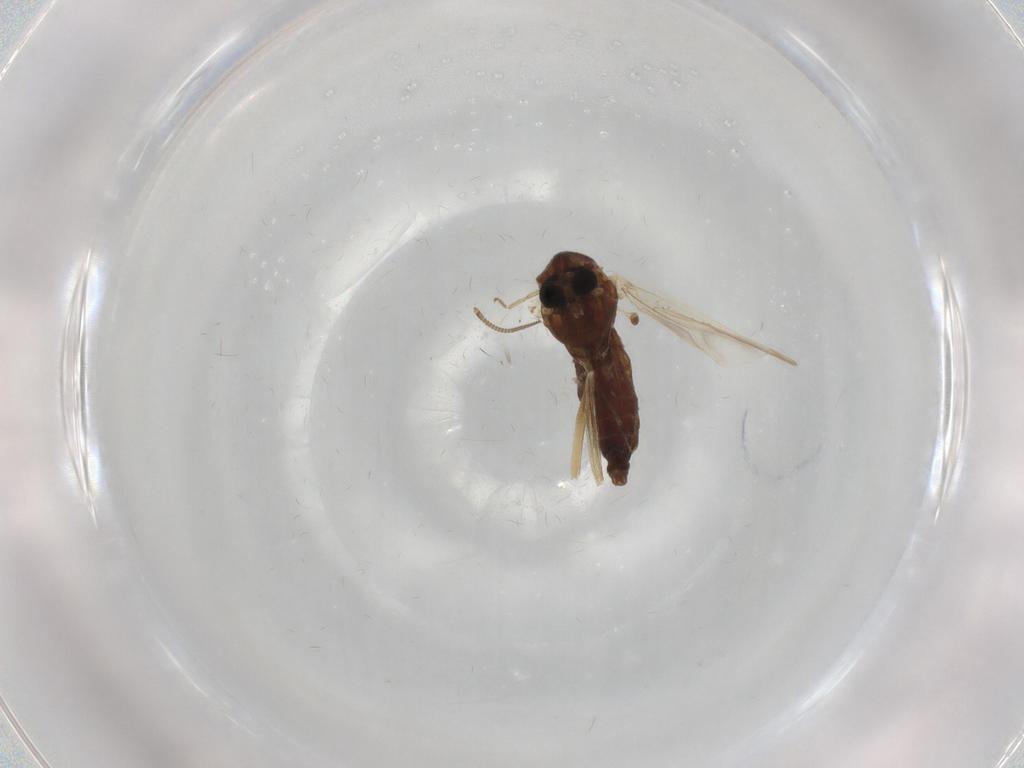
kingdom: Animalia
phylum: Arthropoda
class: Insecta
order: Diptera
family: Chironomidae
